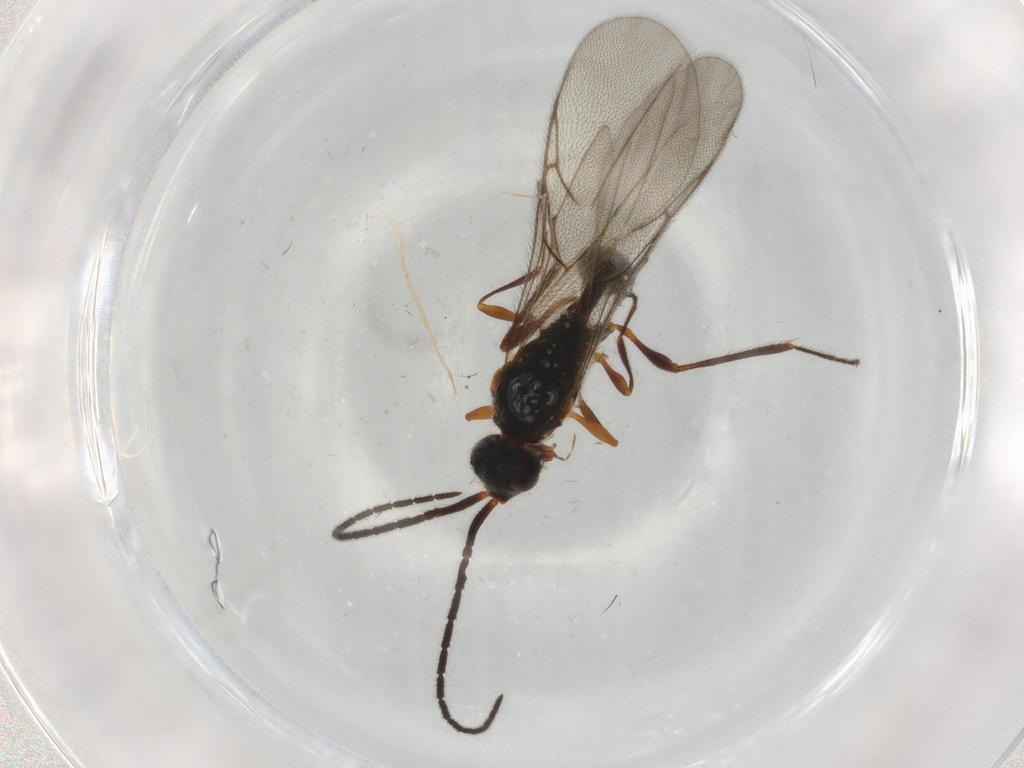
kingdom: Animalia
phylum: Arthropoda
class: Insecta
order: Hymenoptera
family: Diapriidae
